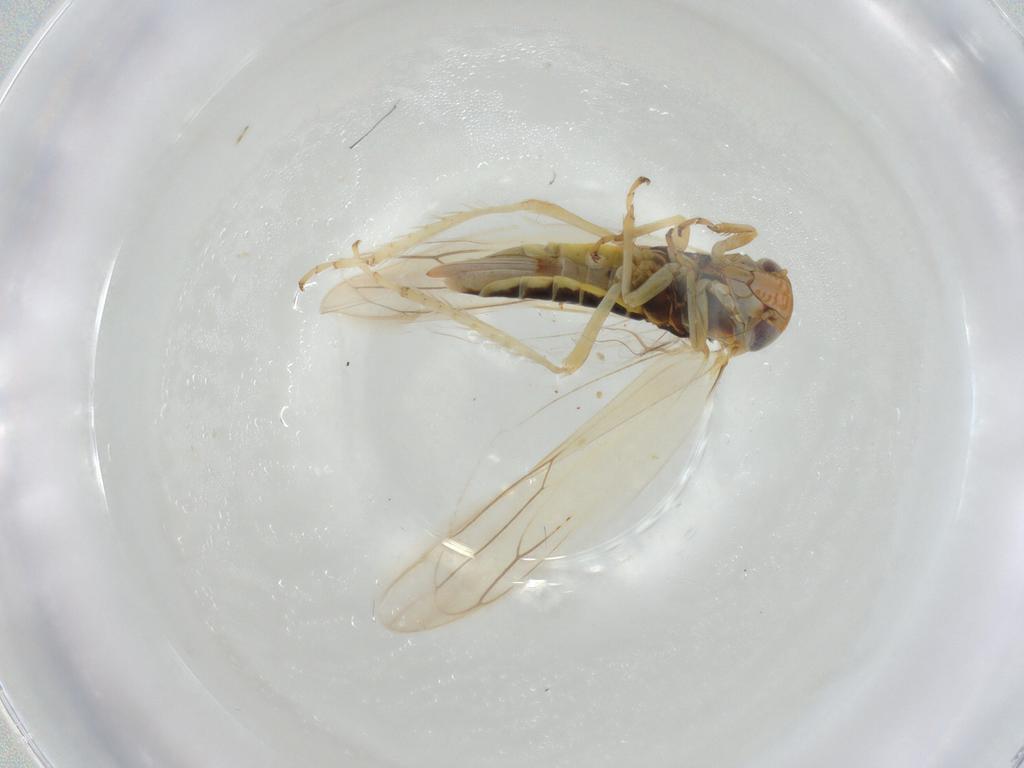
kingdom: Animalia
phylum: Arthropoda
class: Insecta
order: Hemiptera
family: Cicadellidae
